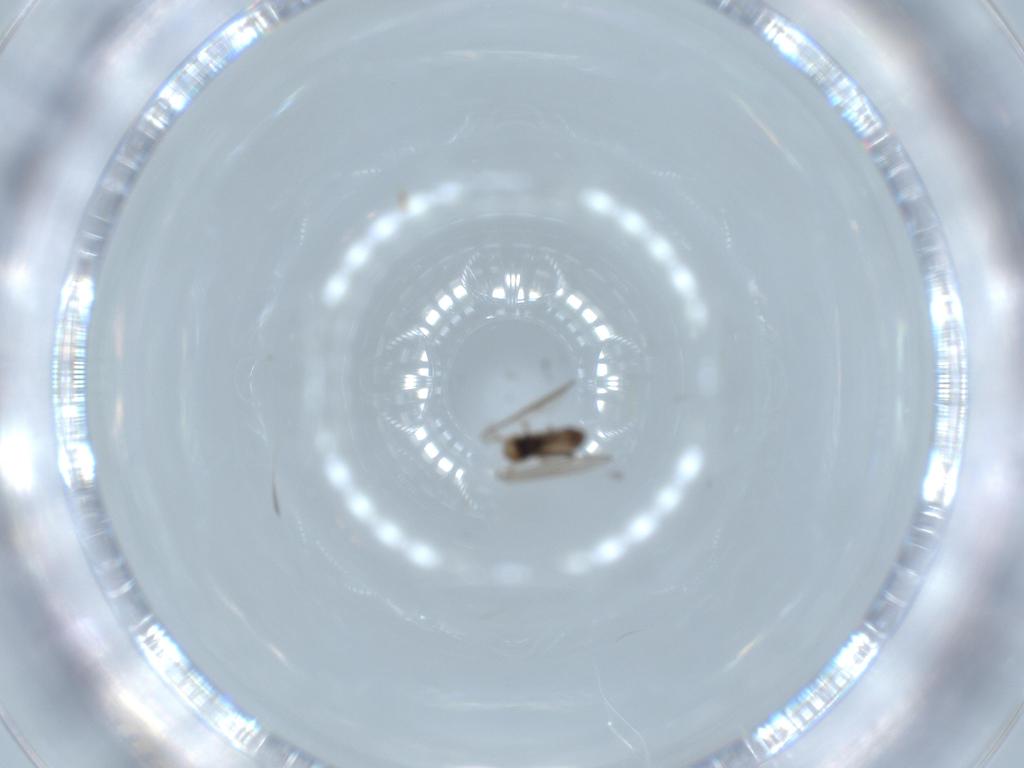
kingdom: Animalia
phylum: Arthropoda
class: Insecta
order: Diptera
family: Psychodidae
